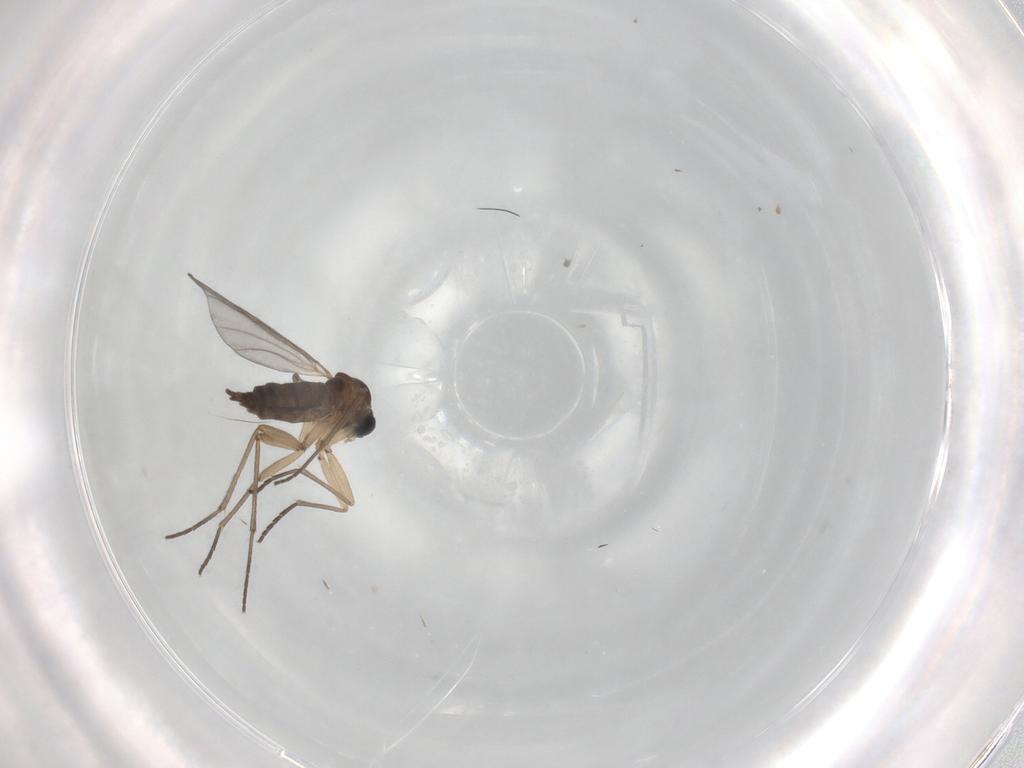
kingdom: Animalia
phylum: Arthropoda
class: Insecta
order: Diptera
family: Sciaridae
